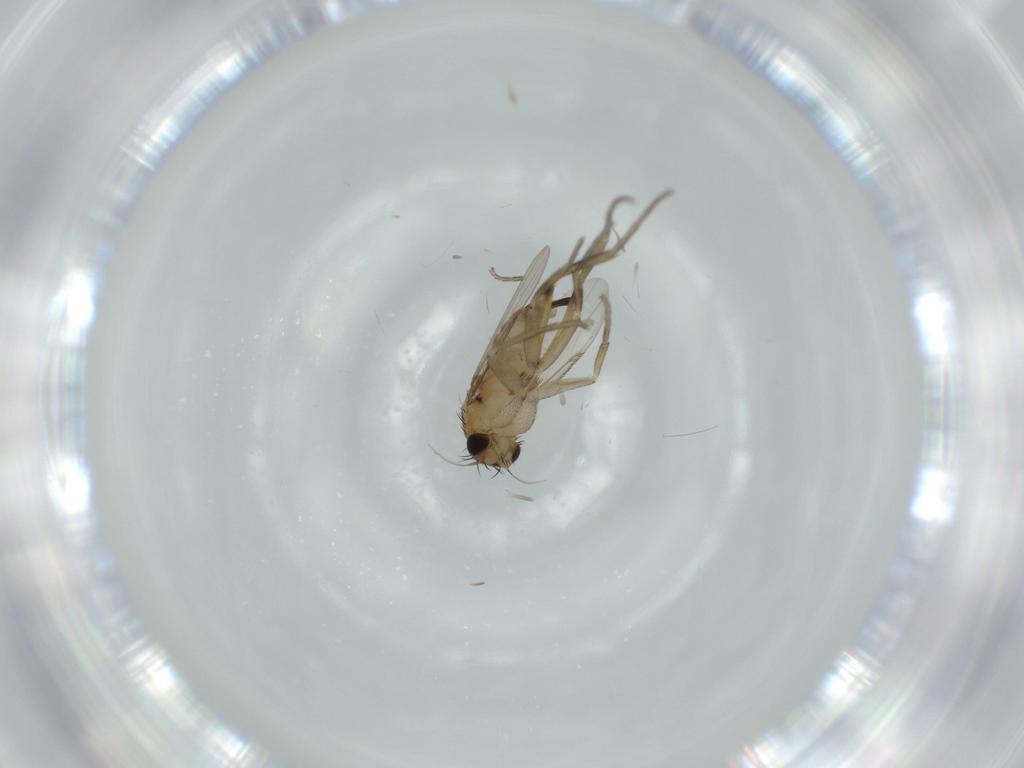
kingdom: Animalia
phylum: Arthropoda
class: Insecta
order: Diptera
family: Phoridae
